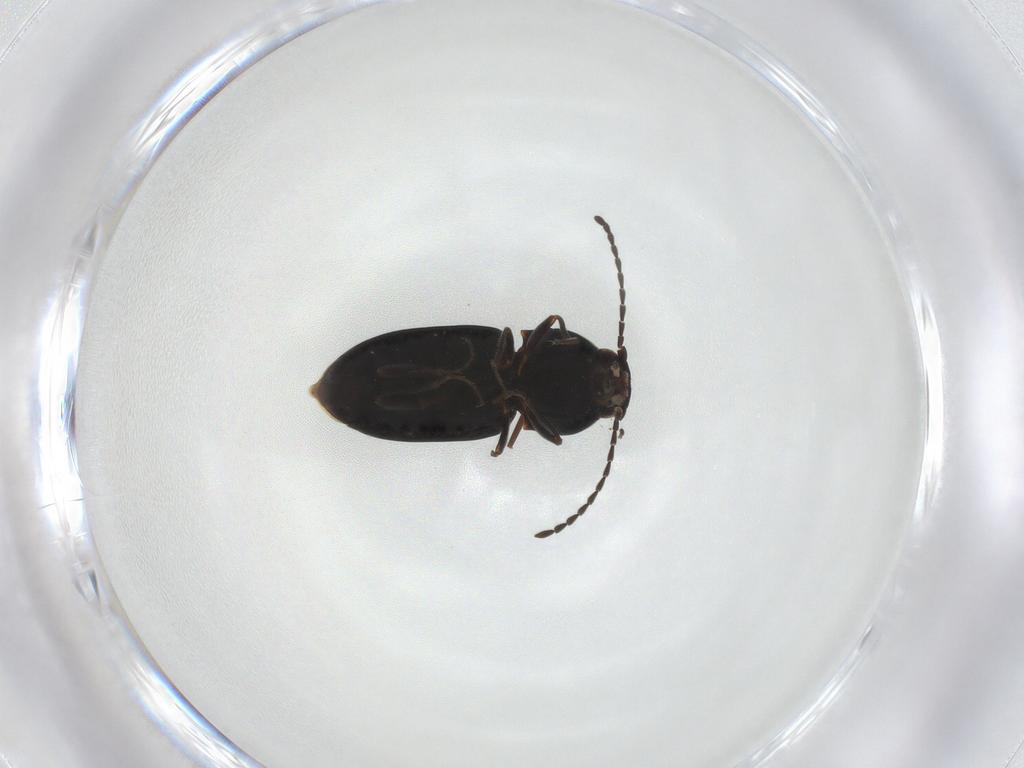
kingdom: Animalia
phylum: Arthropoda
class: Insecta
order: Coleoptera
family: Elateridae
